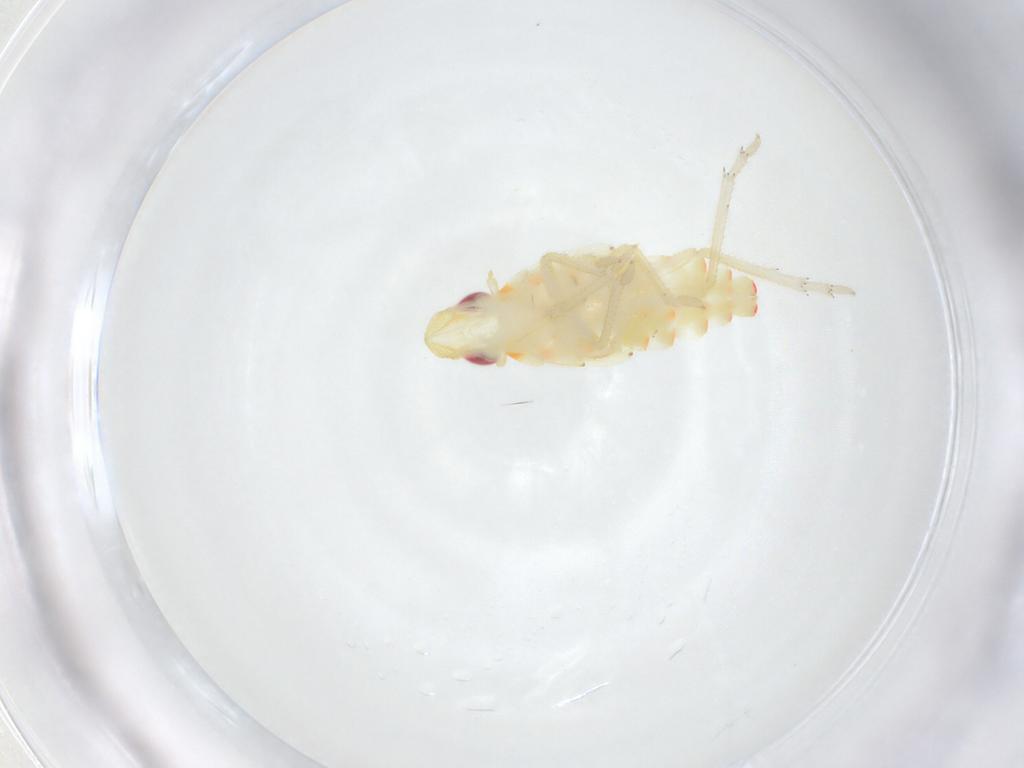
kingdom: Animalia
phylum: Arthropoda
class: Insecta
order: Hemiptera
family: Tropiduchidae
